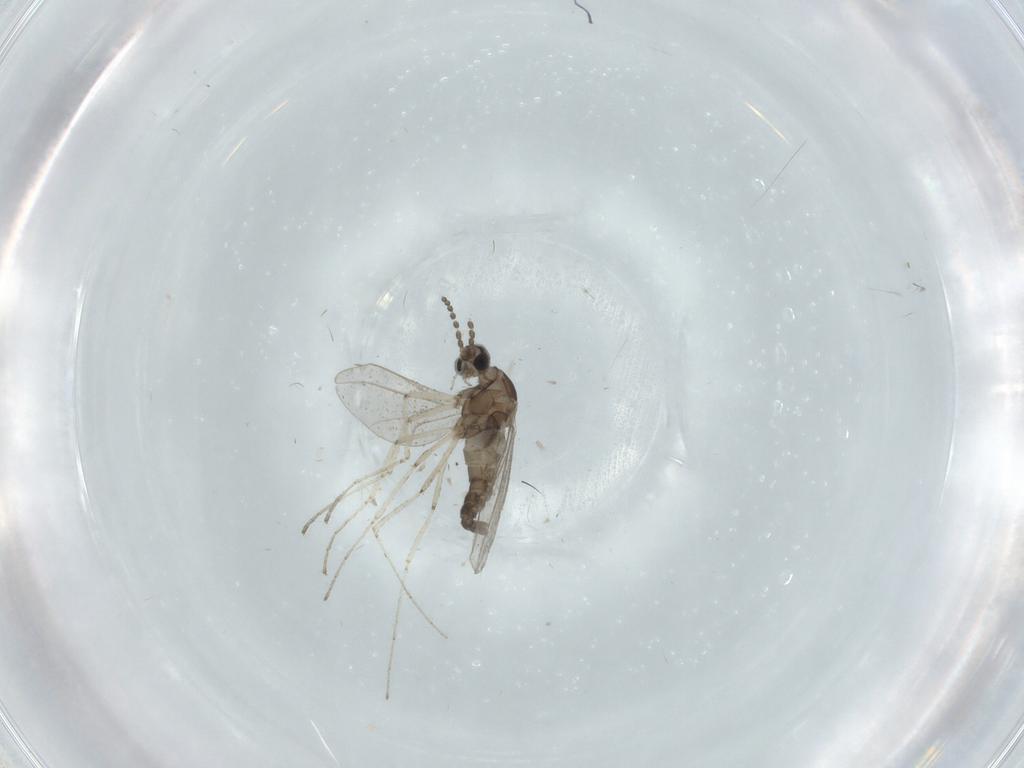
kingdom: Animalia
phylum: Arthropoda
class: Insecta
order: Diptera
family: Cecidomyiidae
